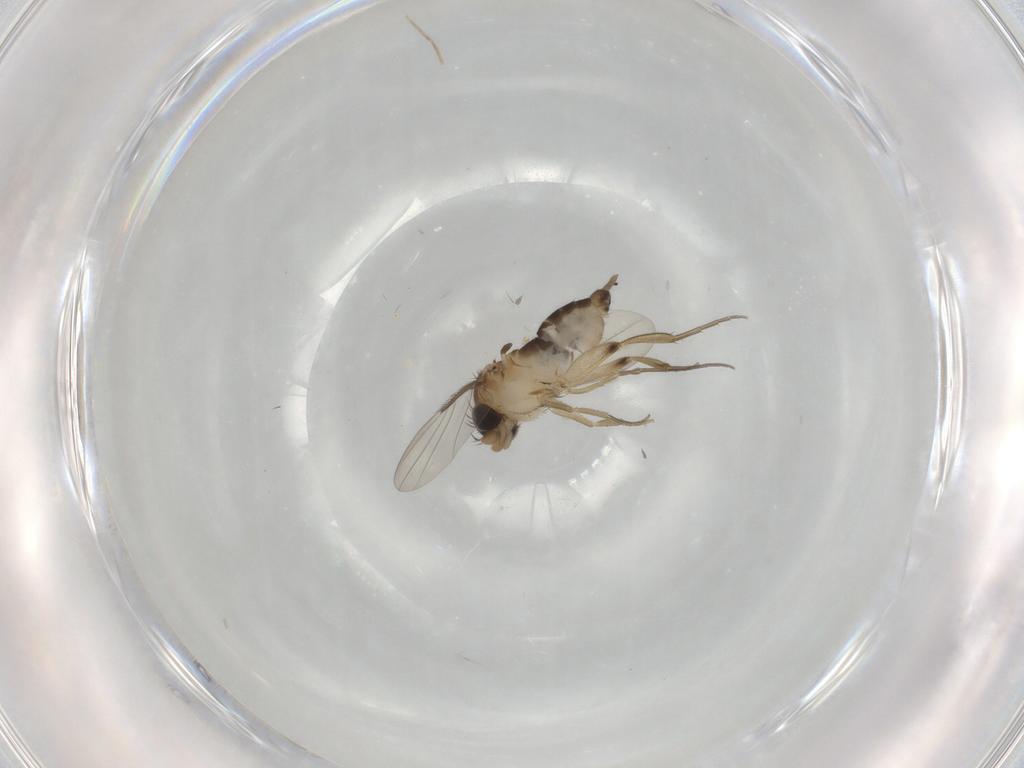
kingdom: Animalia
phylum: Arthropoda
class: Insecta
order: Diptera
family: Phoridae
